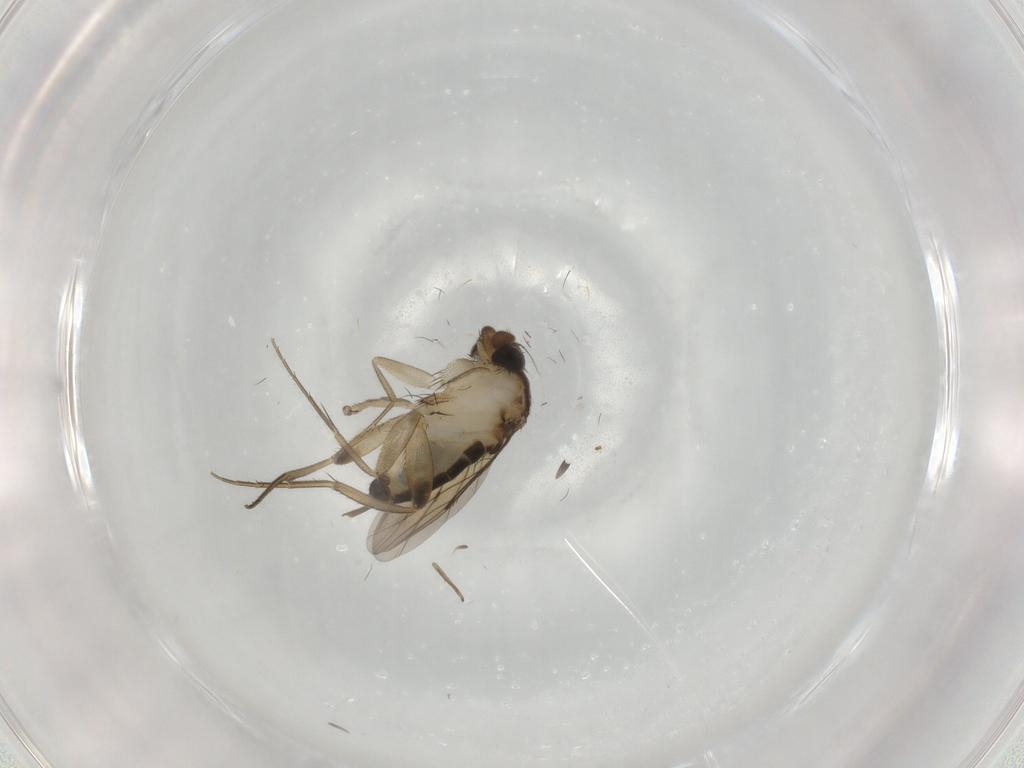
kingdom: Animalia
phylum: Arthropoda
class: Insecta
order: Diptera
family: Phoridae
